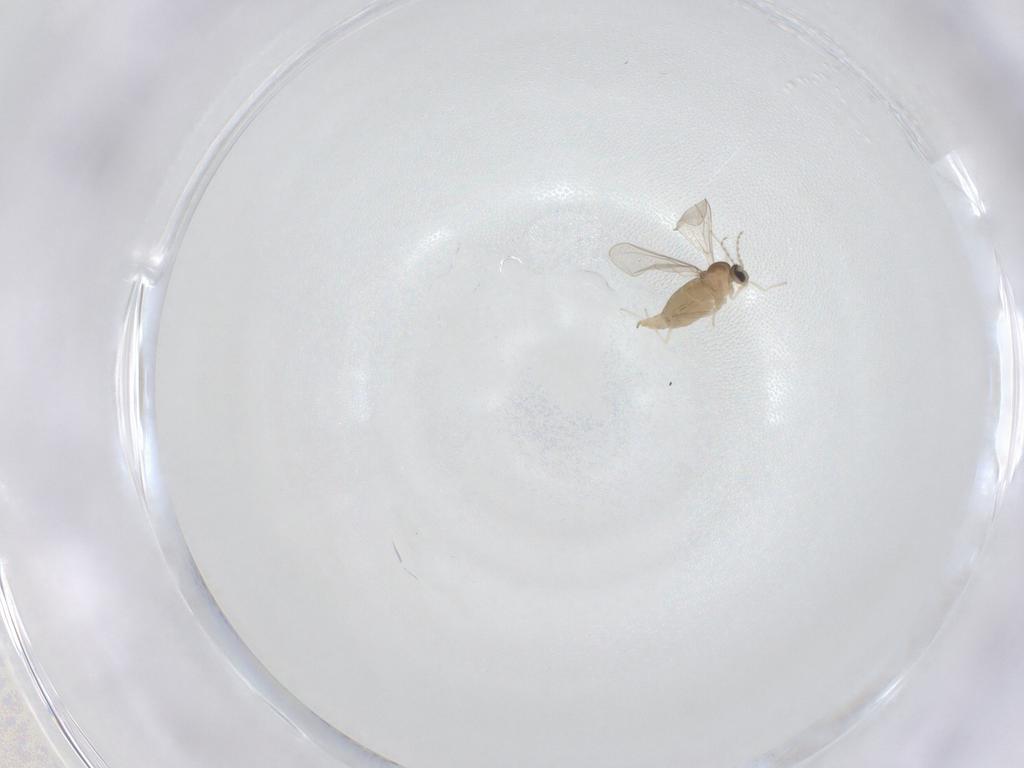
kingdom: Animalia
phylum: Arthropoda
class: Insecta
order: Diptera
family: Cecidomyiidae
